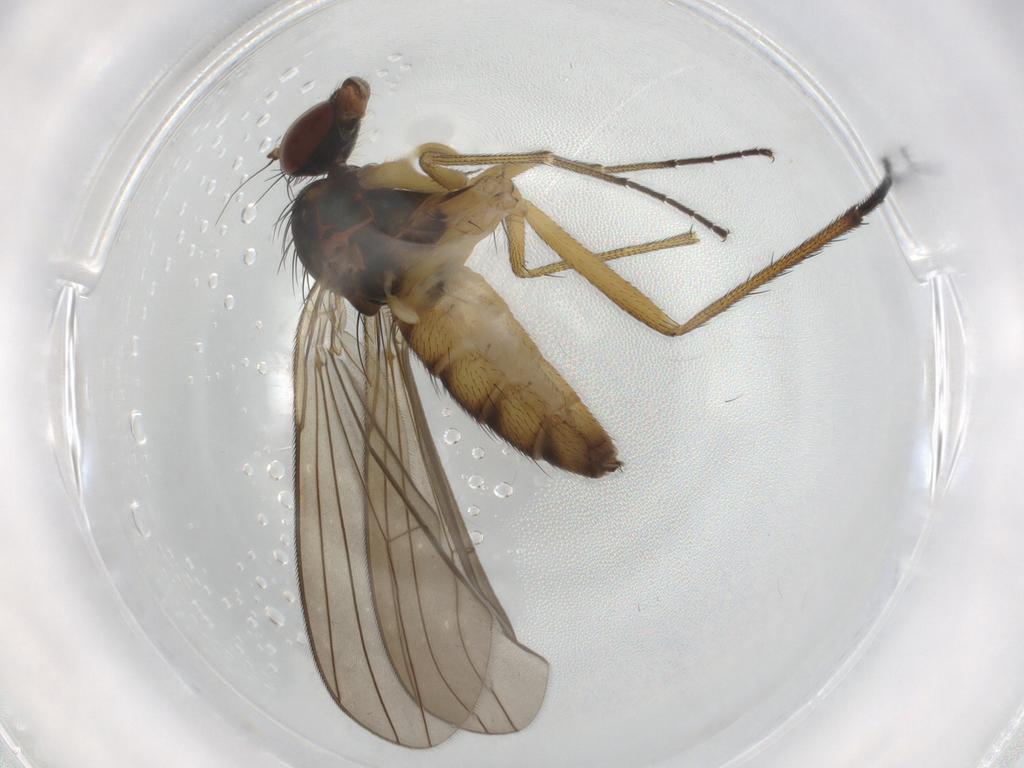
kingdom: Animalia
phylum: Arthropoda
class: Insecta
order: Diptera
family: Dolichopodidae
